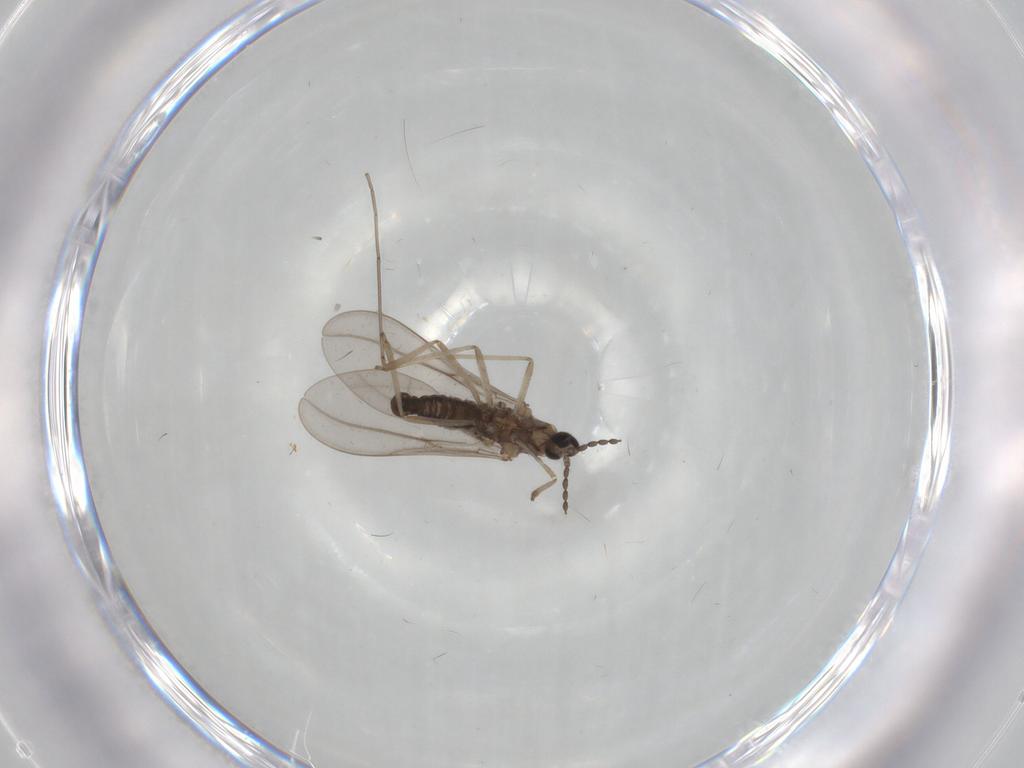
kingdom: Animalia
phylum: Arthropoda
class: Insecta
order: Diptera
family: Cecidomyiidae
